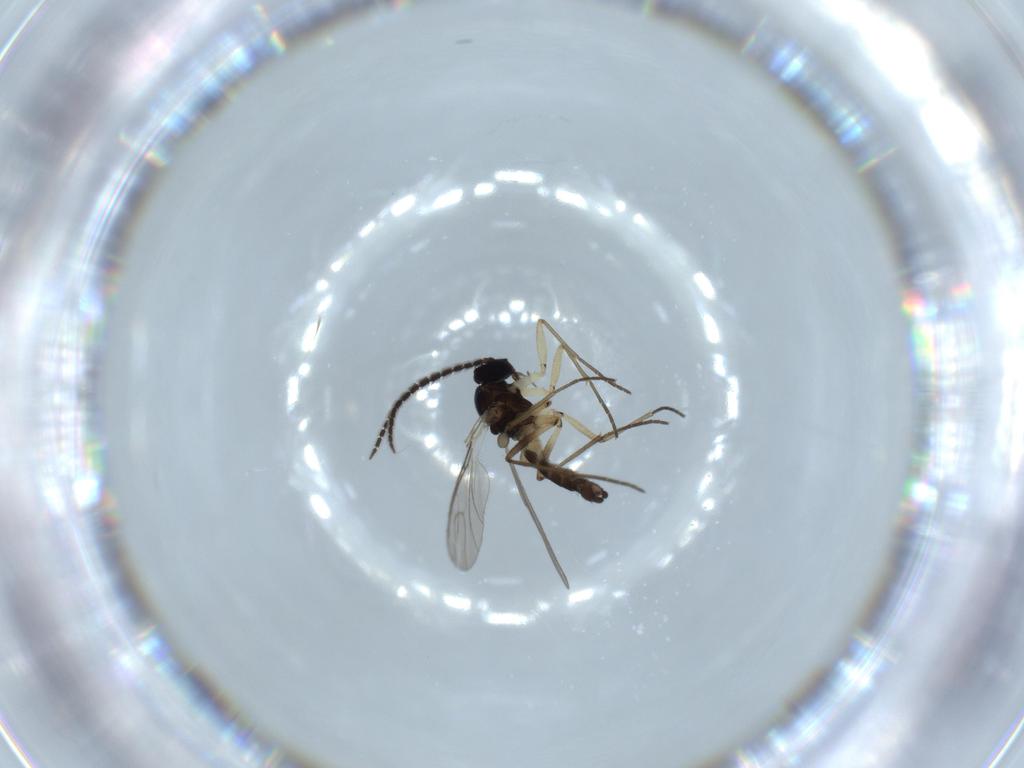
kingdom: Animalia
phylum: Arthropoda
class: Insecta
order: Diptera
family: Sciaridae
